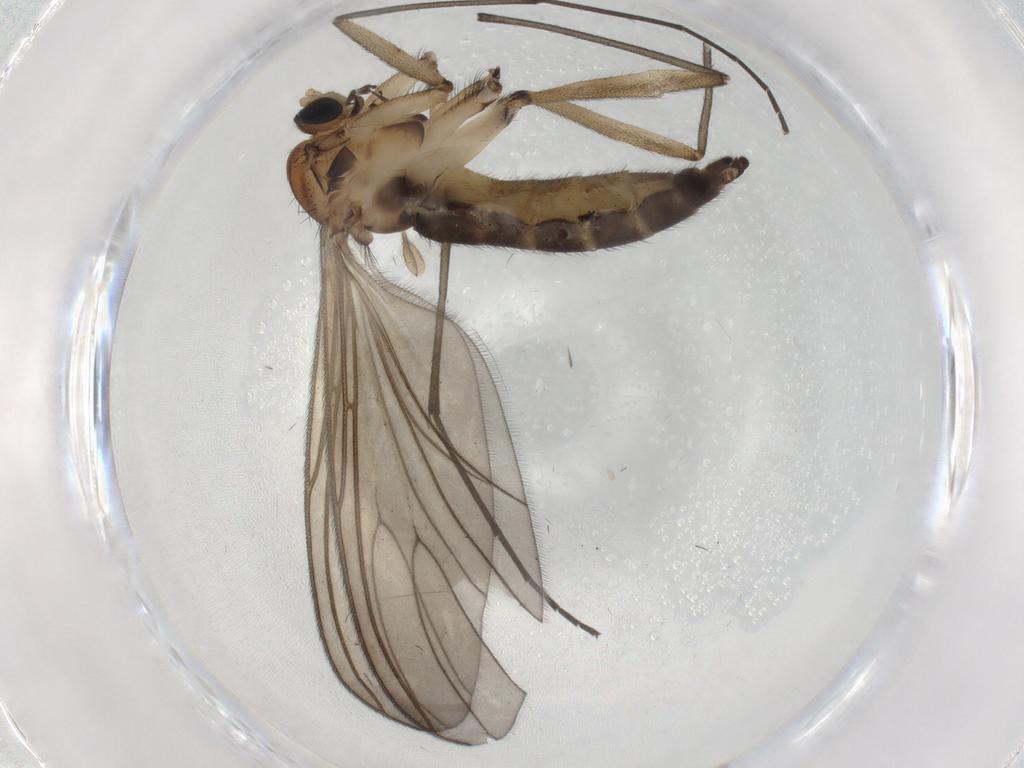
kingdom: Animalia
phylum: Arthropoda
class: Insecta
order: Diptera
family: Sciaridae
